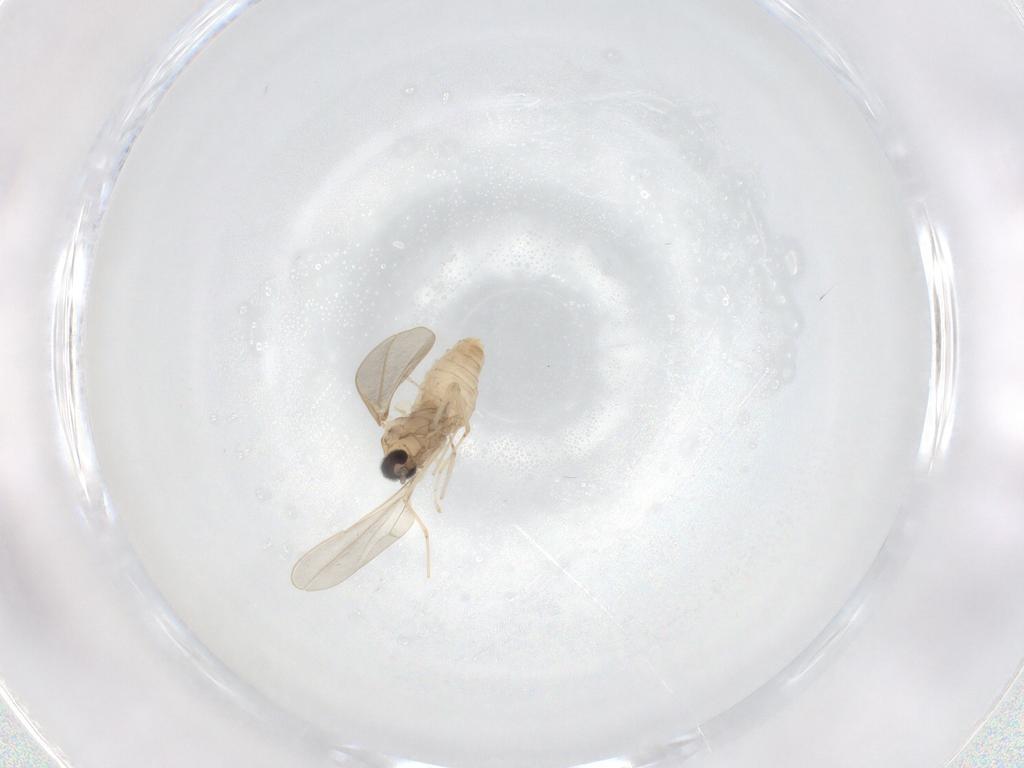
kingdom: Animalia
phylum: Arthropoda
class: Insecta
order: Diptera
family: Cecidomyiidae
